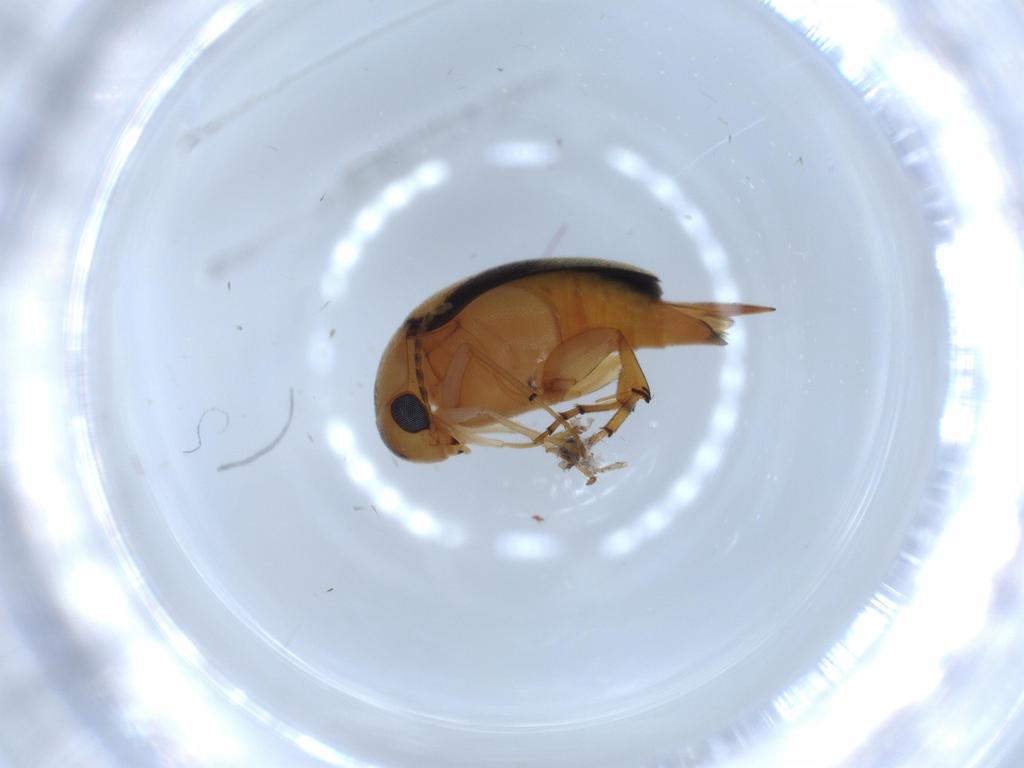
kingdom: Animalia
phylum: Arthropoda
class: Insecta
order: Coleoptera
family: Mordellidae
